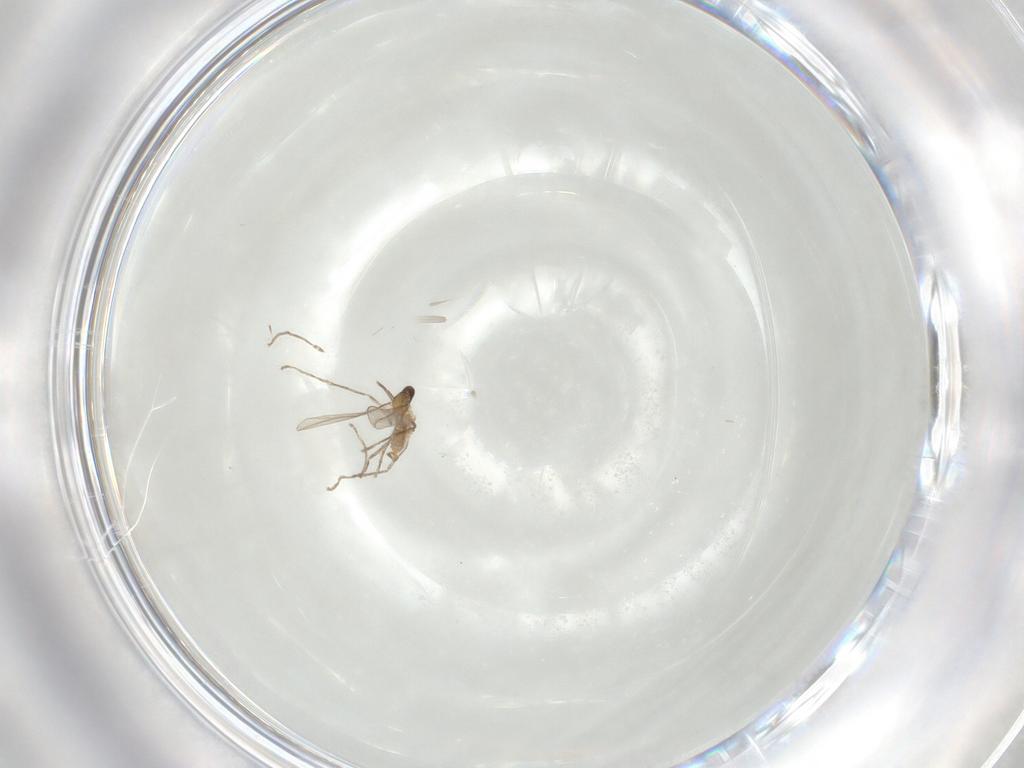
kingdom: Animalia
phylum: Arthropoda
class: Insecta
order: Diptera
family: Cecidomyiidae
